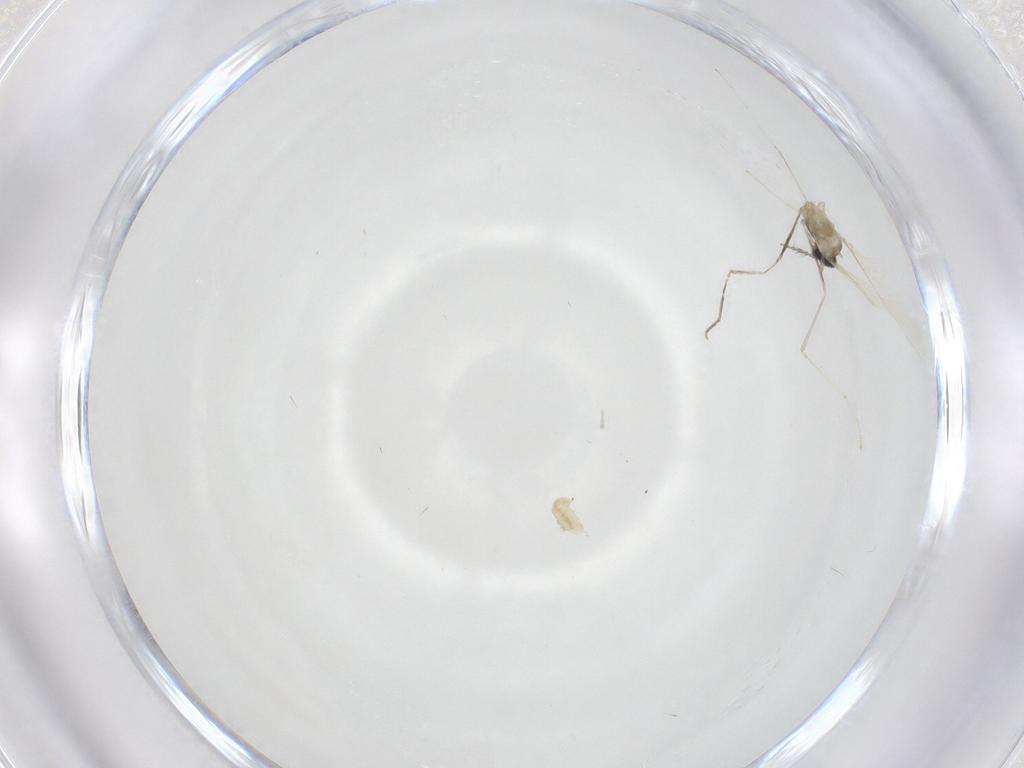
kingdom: Animalia
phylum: Arthropoda
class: Insecta
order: Diptera
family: Cecidomyiidae
